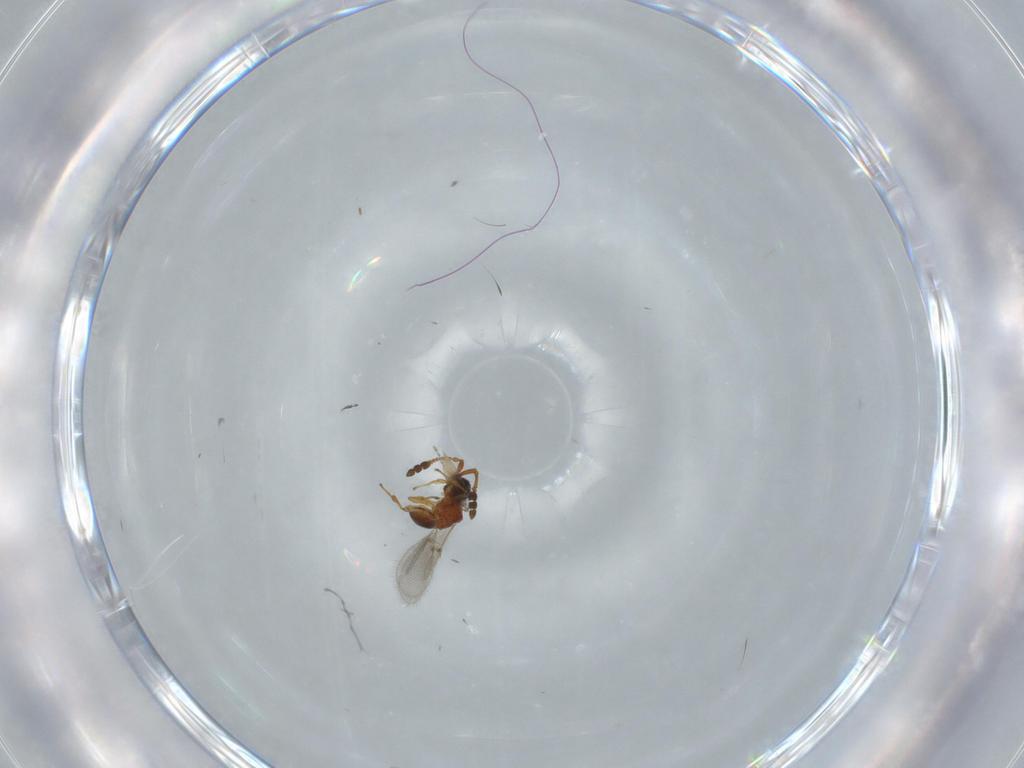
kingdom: Animalia
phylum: Arthropoda
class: Insecta
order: Hymenoptera
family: Diapriidae
